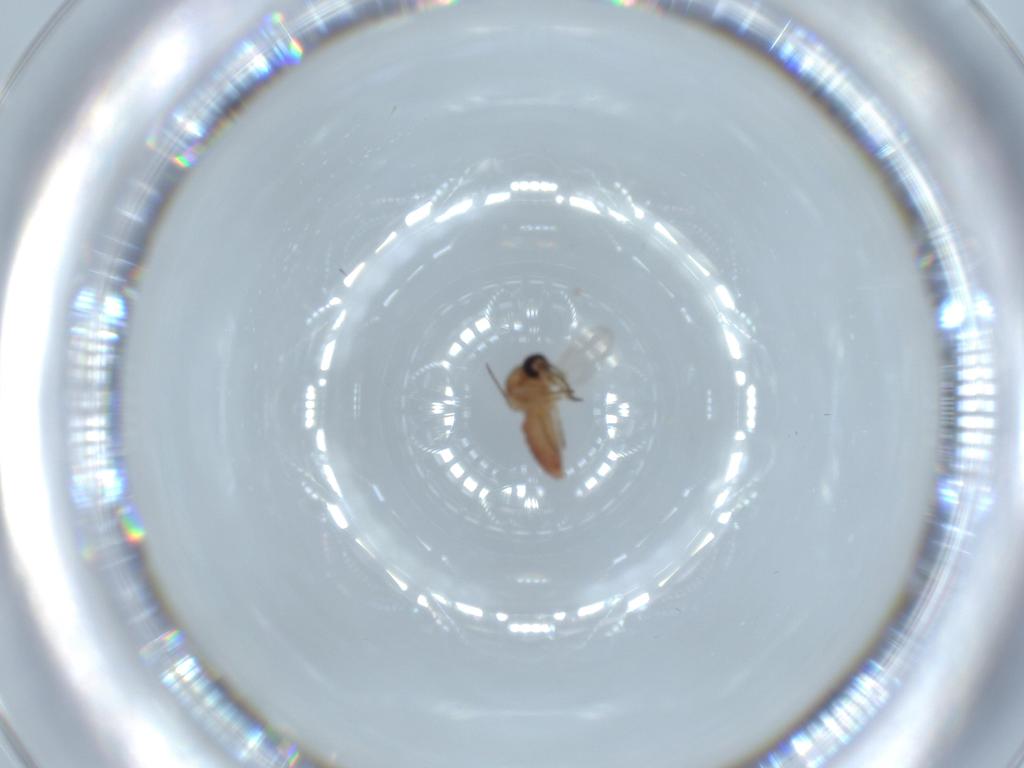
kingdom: Animalia
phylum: Arthropoda
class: Insecta
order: Diptera
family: Ceratopogonidae
